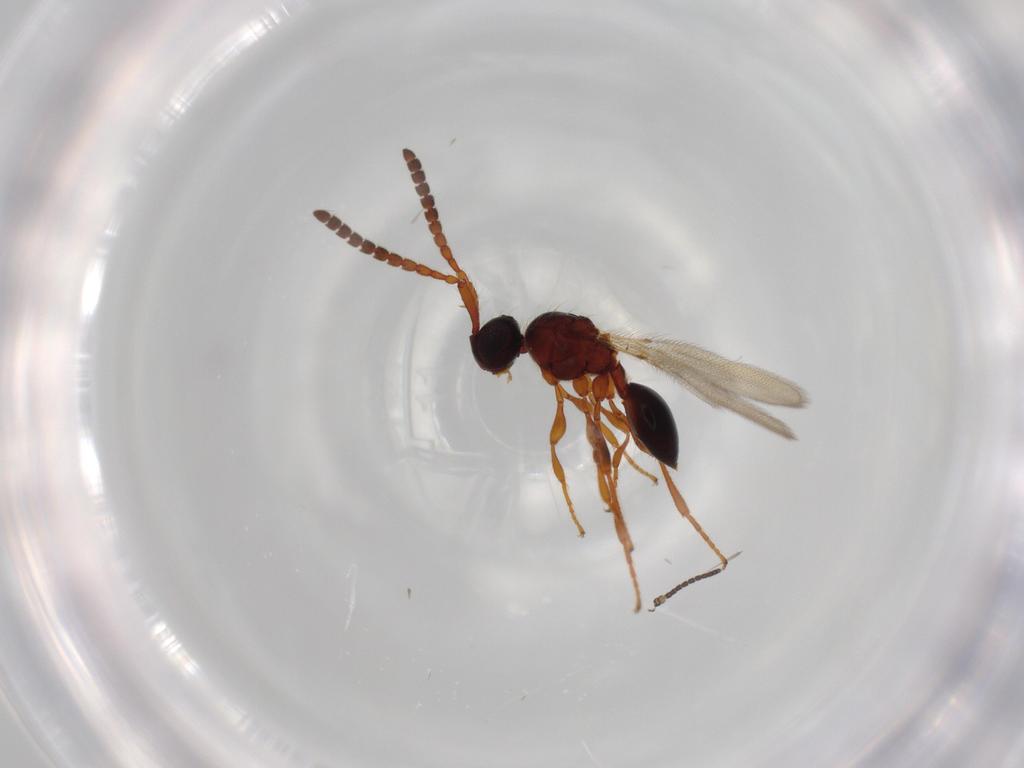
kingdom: Animalia
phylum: Arthropoda
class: Insecta
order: Hymenoptera
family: Diapriidae
